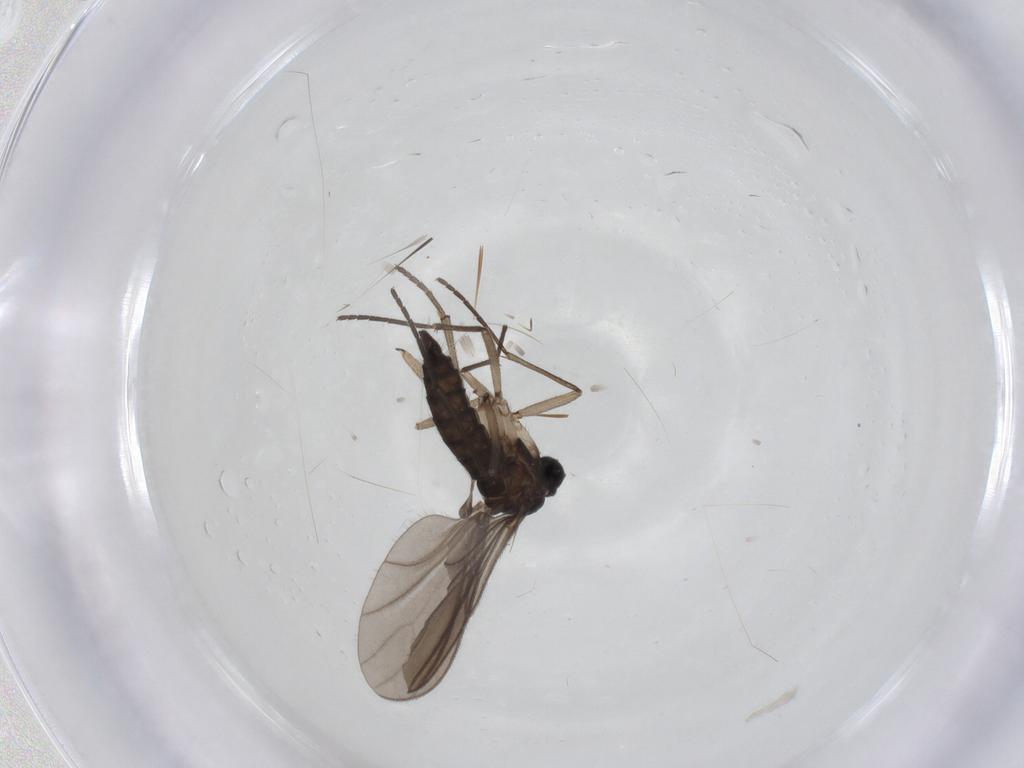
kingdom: Animalia
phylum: Arthropoda
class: Insecta
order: Diptera
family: Sciaridae
